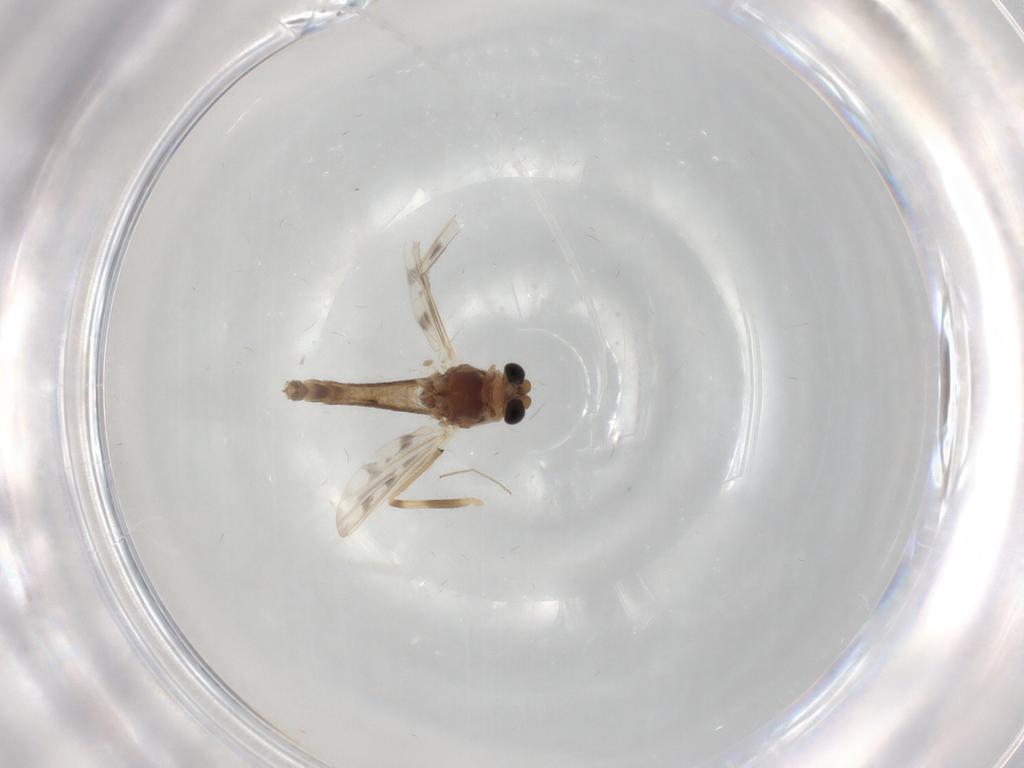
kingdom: Animalia
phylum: Arthropoda
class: Insecta
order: Diptera
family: Chironomidae
